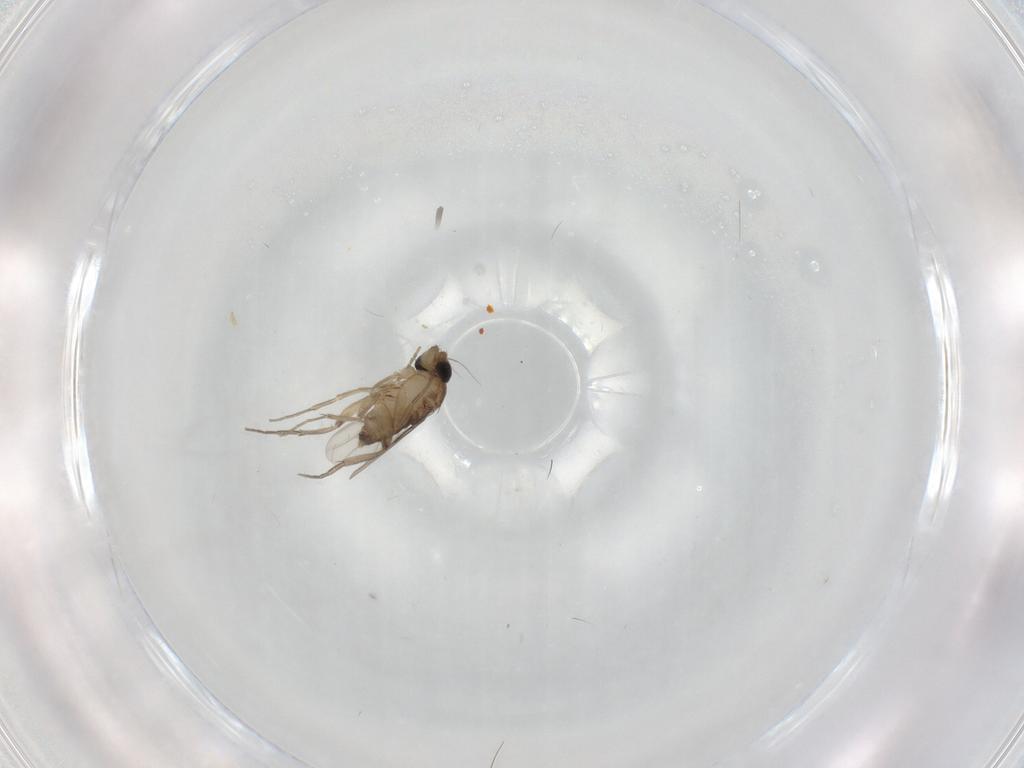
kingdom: Animalia
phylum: Arthropoda
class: Insecta
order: Diptera
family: Phoridae
